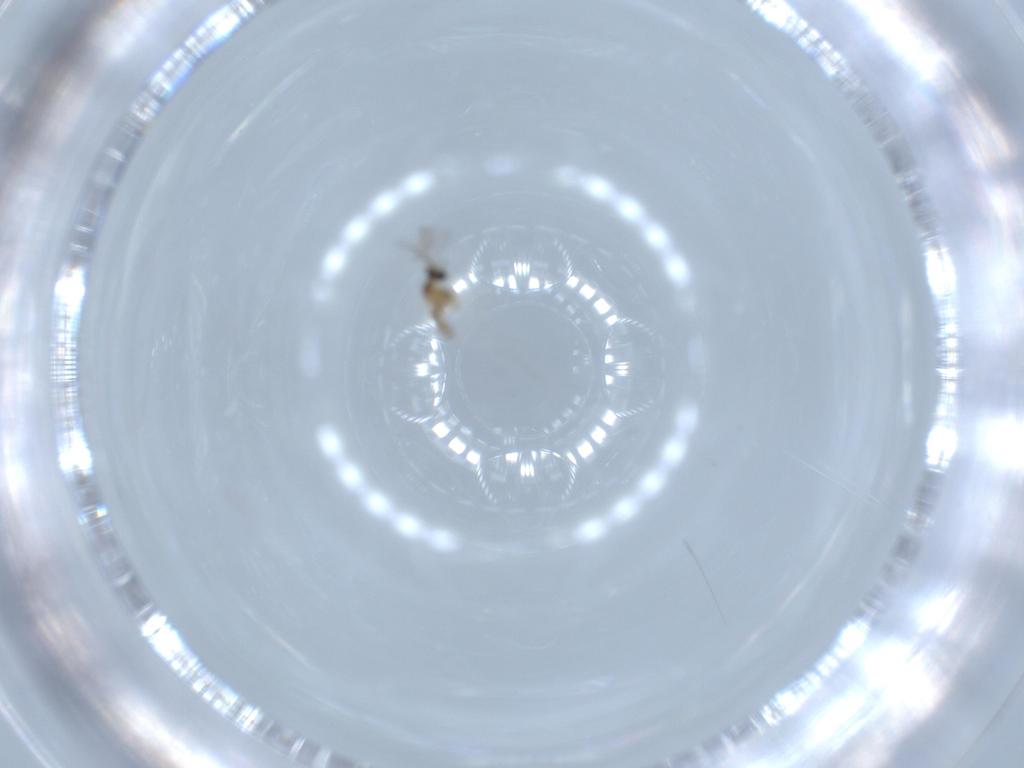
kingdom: Animalia
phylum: Arthropoda
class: Insecta
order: Diptera
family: Cecidomyiidae
